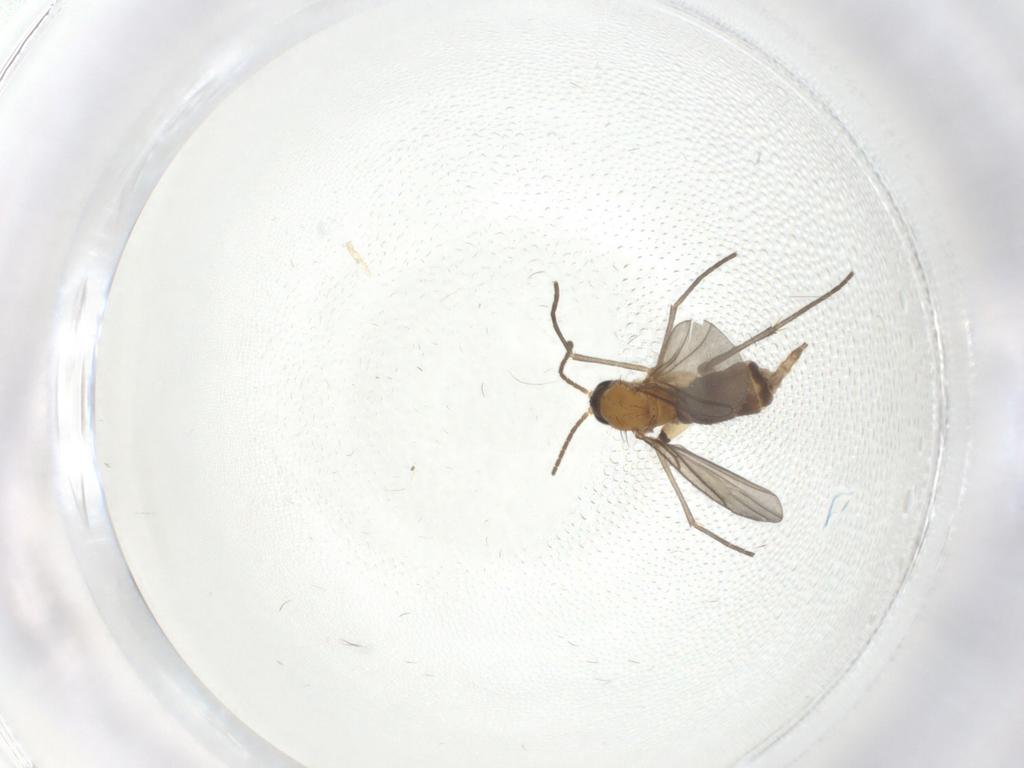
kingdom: Animalia
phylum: Arthropoda
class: Insecta
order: Diptera
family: Sciaridae
